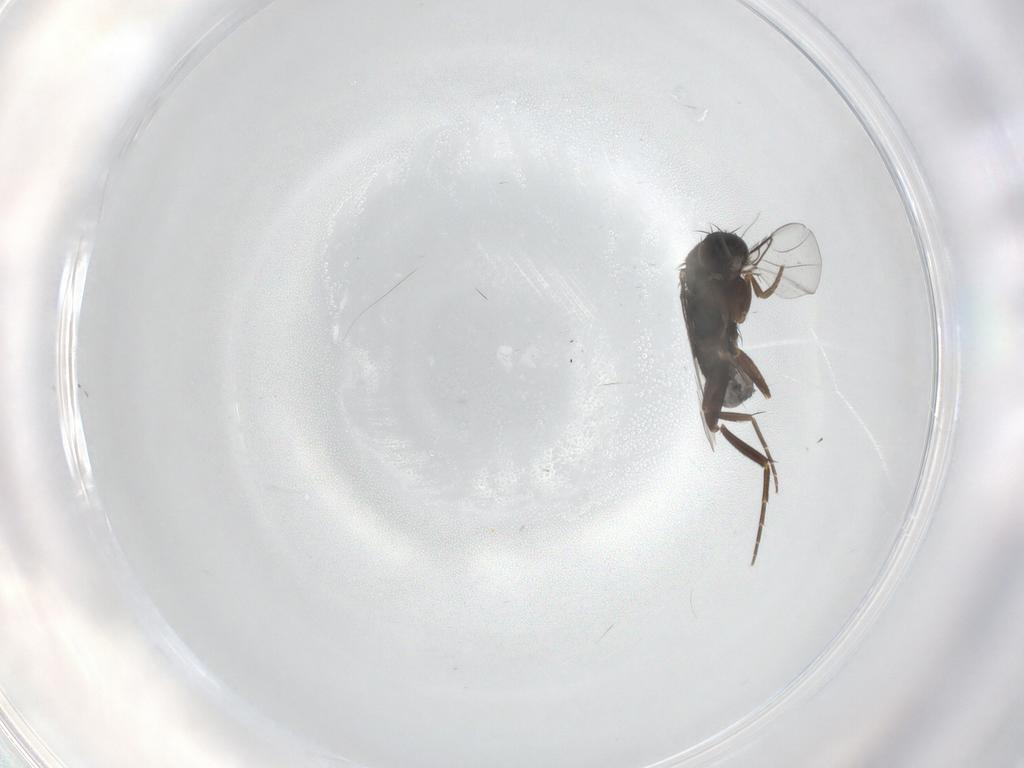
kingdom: Animalia
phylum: Arthropoda
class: Insecta
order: Diptera
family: Phoridae
